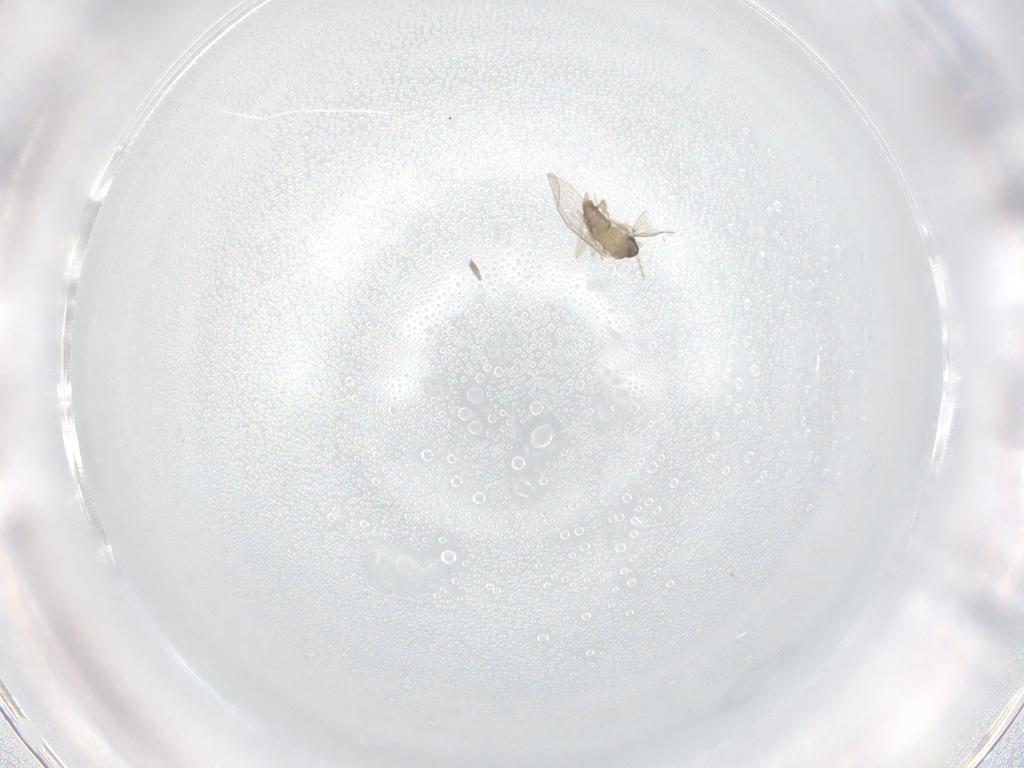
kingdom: Animalia
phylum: Arthropoda
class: Insecta
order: Diptera
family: Cecidomyiidae
